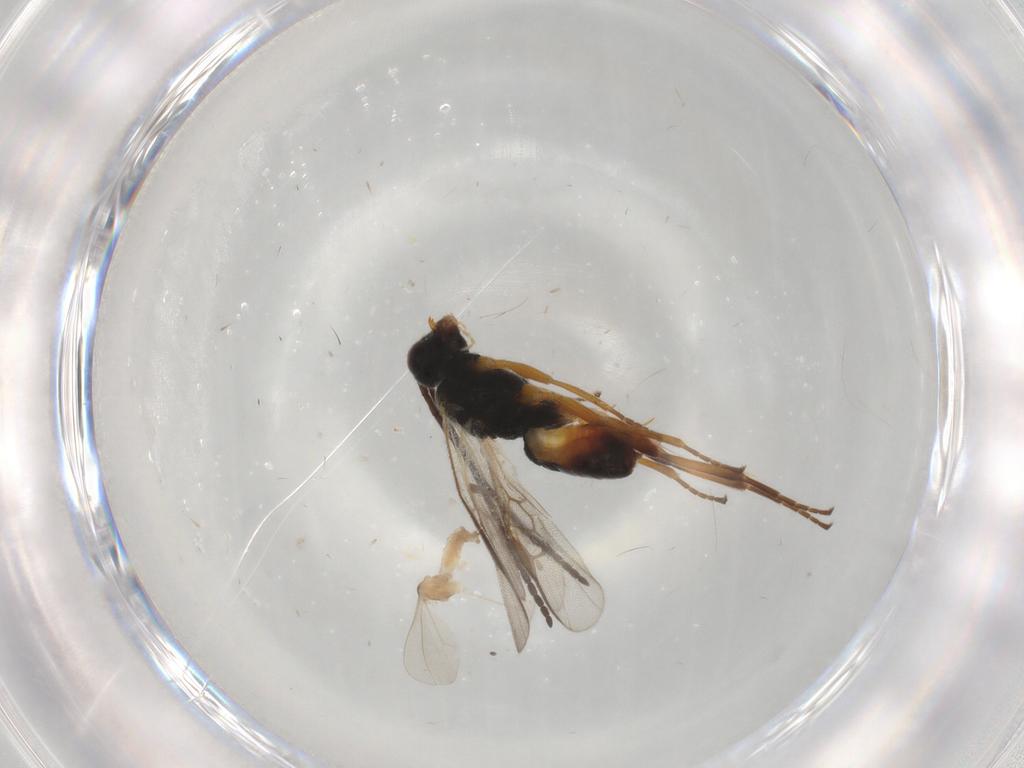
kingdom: Animalia
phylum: Arthropoda
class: Insecta
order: Hymenoptera
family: Braconidae
